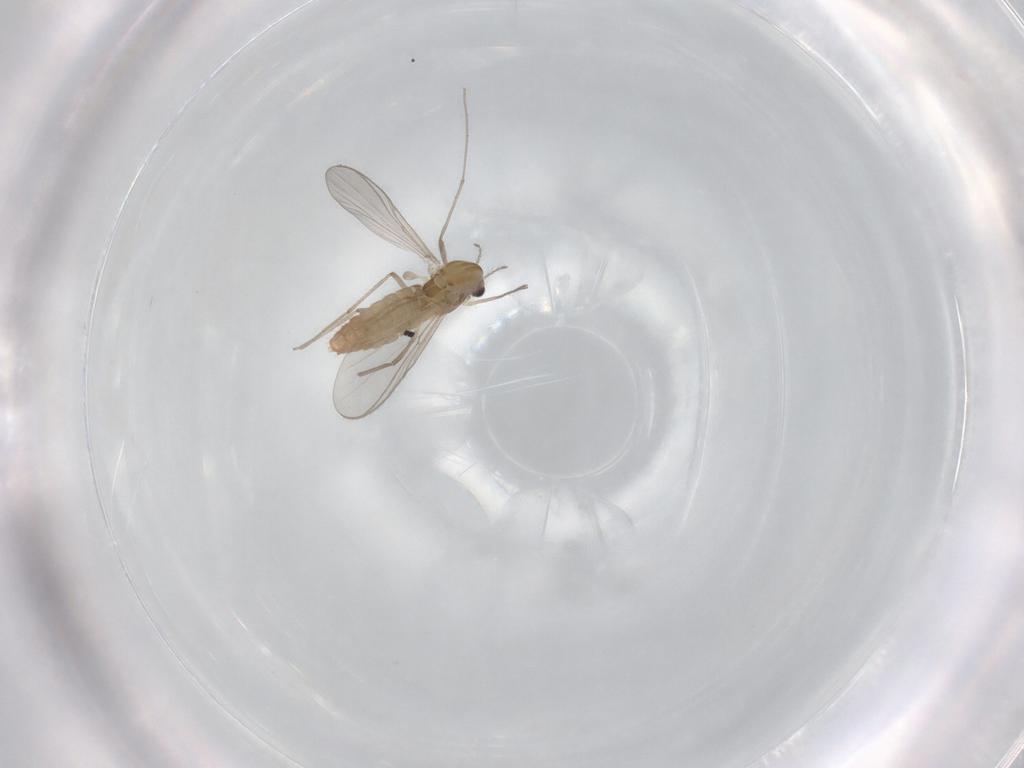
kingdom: Animalia
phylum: Arthropoda
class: Insecta
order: Diptera
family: Chironomidae
